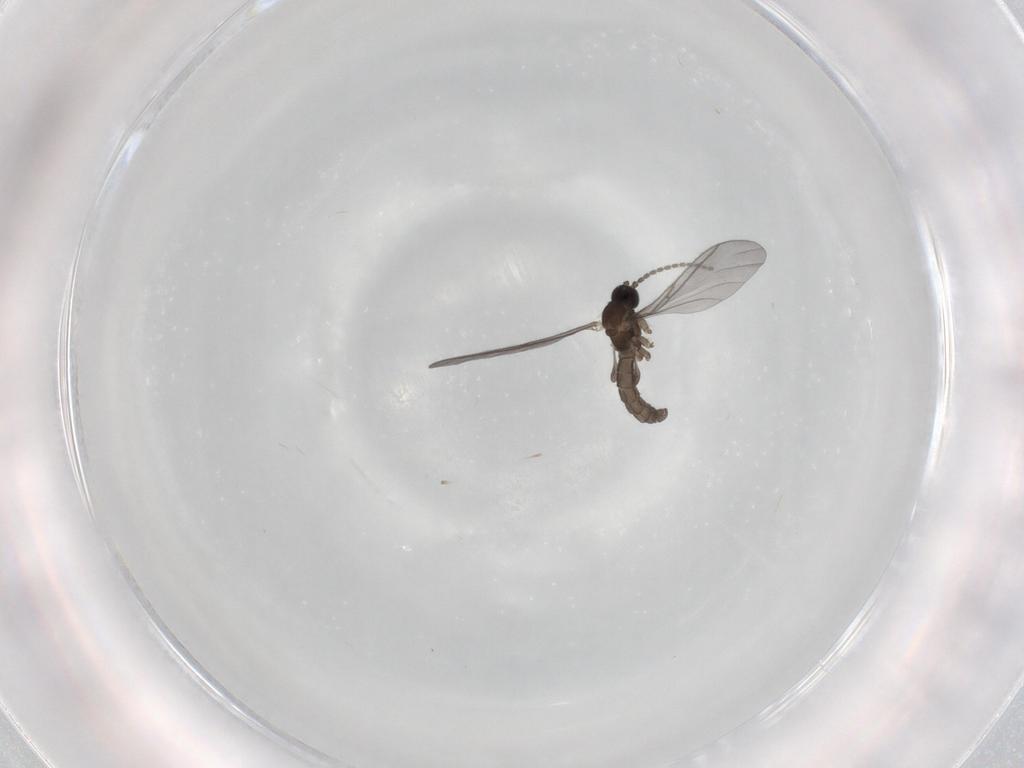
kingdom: Animalia
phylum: Arthropoda
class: Insecta
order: Diptera
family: Sciaridae
